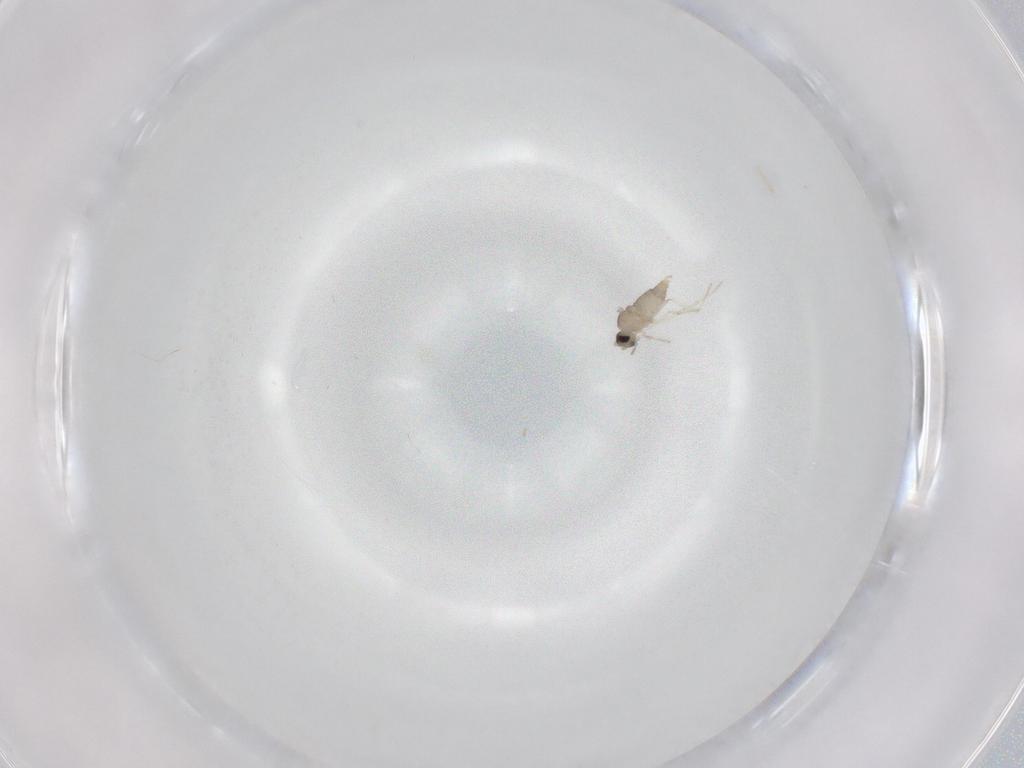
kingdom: Animalia
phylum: Arthropoda
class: Insecta
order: Diptera
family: Cecidomyiidae
